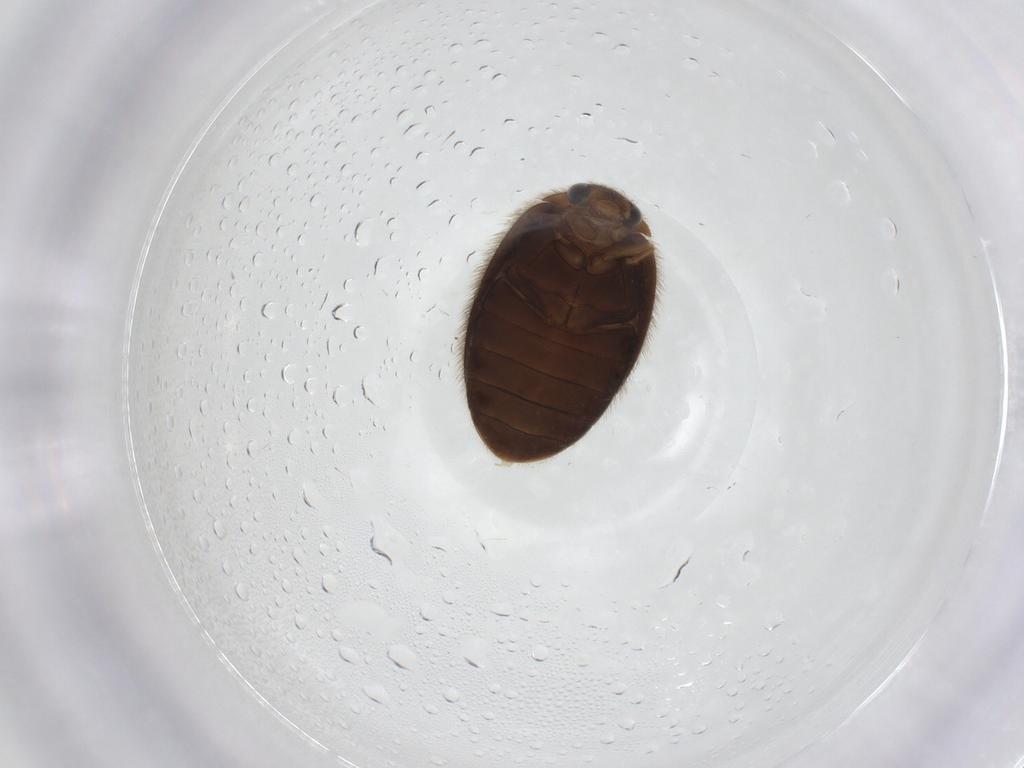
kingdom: Animalia
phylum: Arthropoda
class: Insecta
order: Coleoptera
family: Scirtidae
